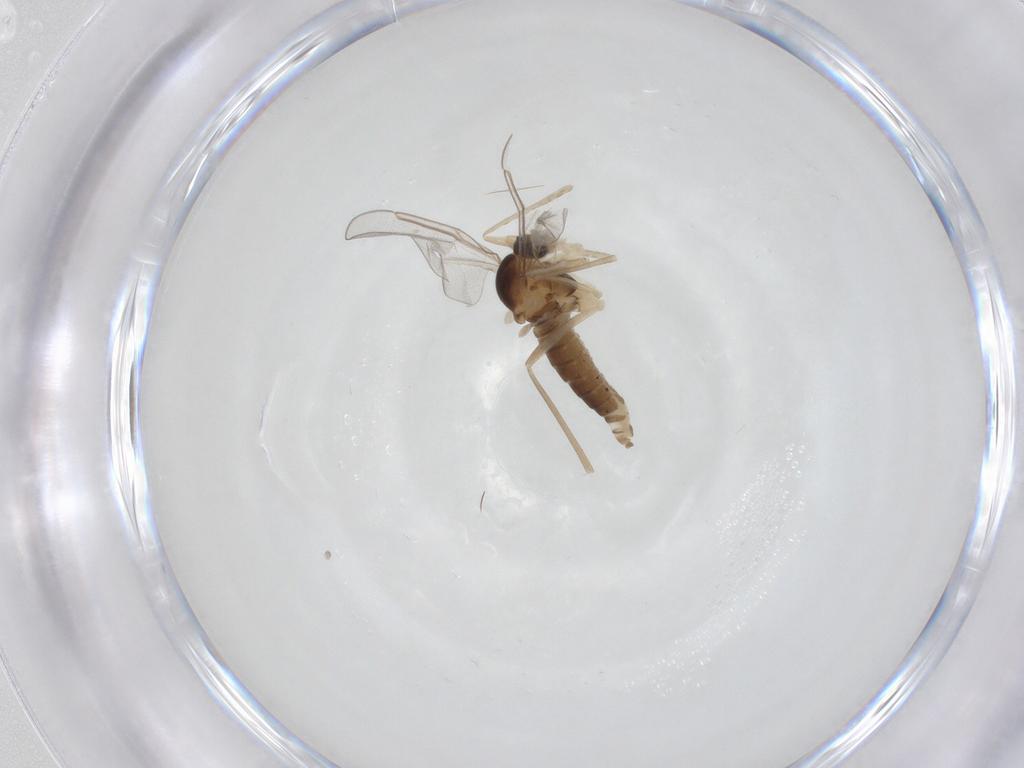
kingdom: Animalia
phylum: Arthropoda
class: Insecta
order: Diptera
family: Cecidomyiidae
